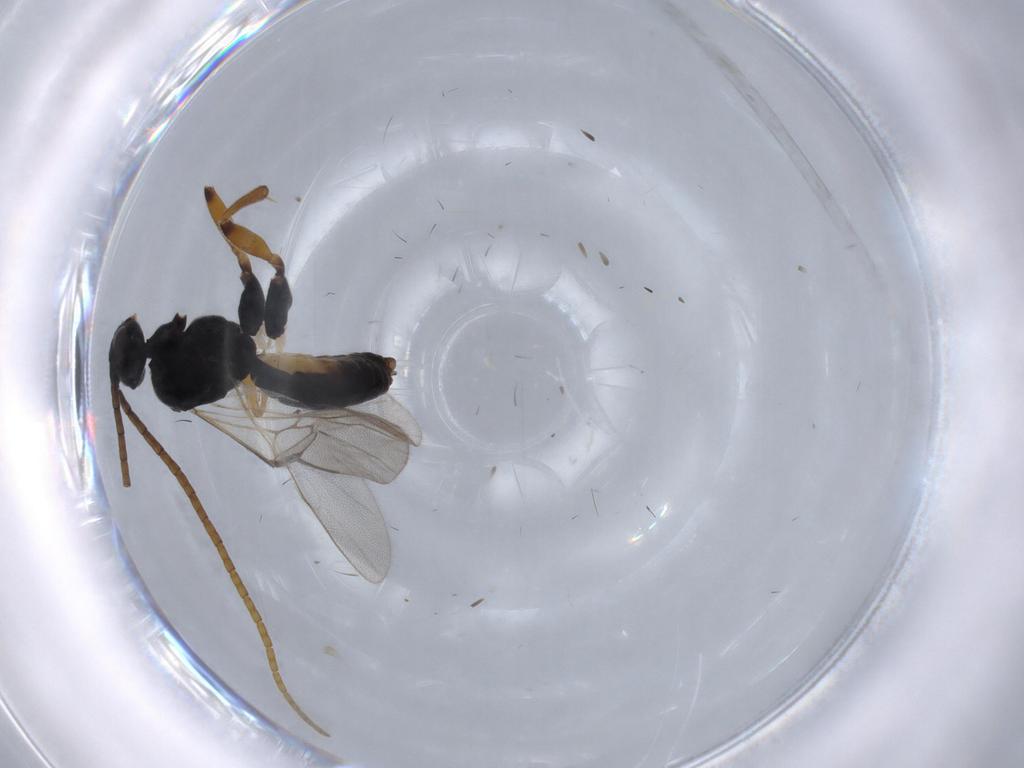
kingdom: Animalia
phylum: Arthropoda
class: Insecta
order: Hymenoptera
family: Braconidae
